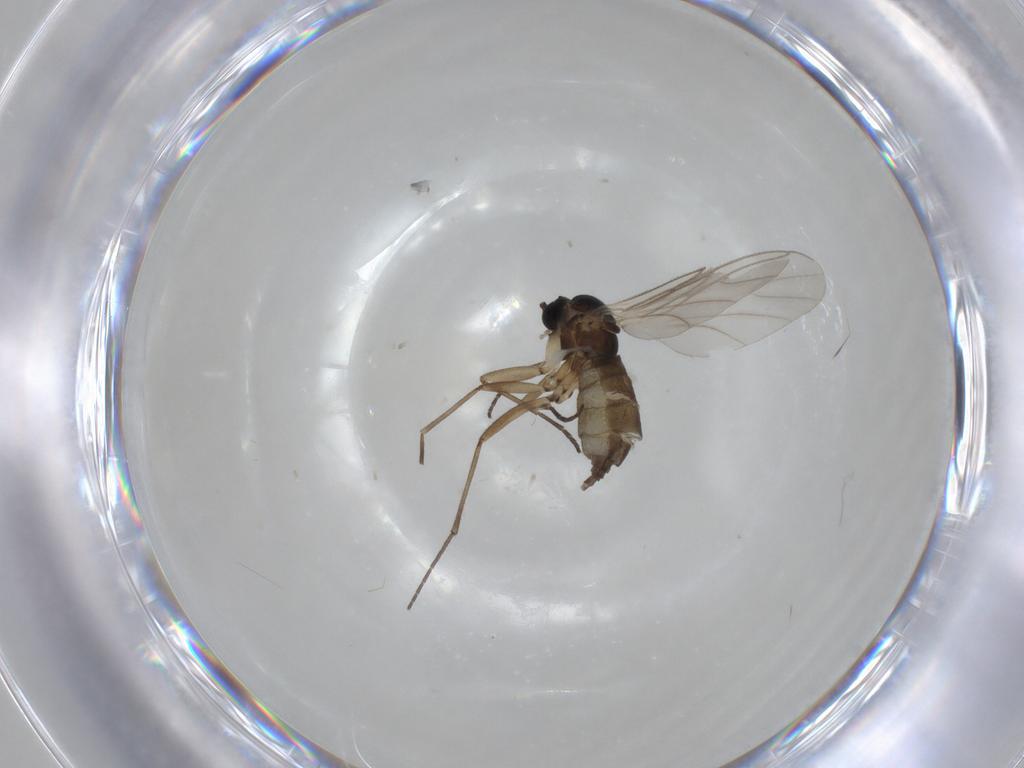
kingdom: Animalia
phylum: Arthropoda
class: Insecta
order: Diptera
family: Empididae
